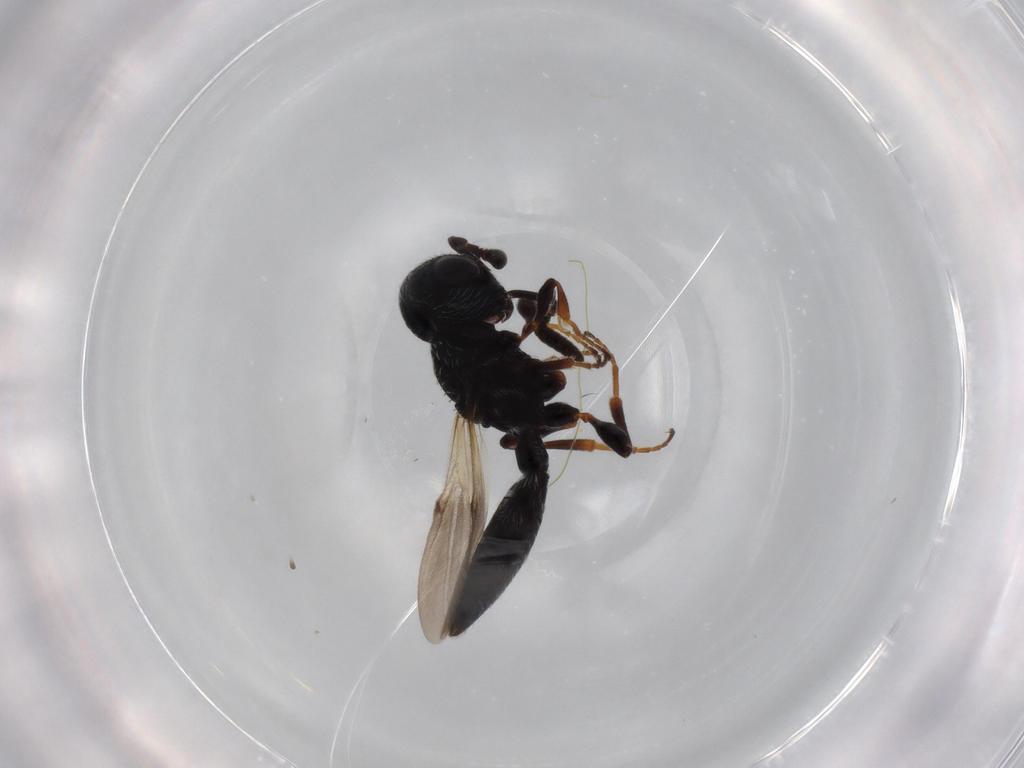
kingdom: Animalia
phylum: Arthropoda
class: Insecta
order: Hymenoptera
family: Scelionidae
